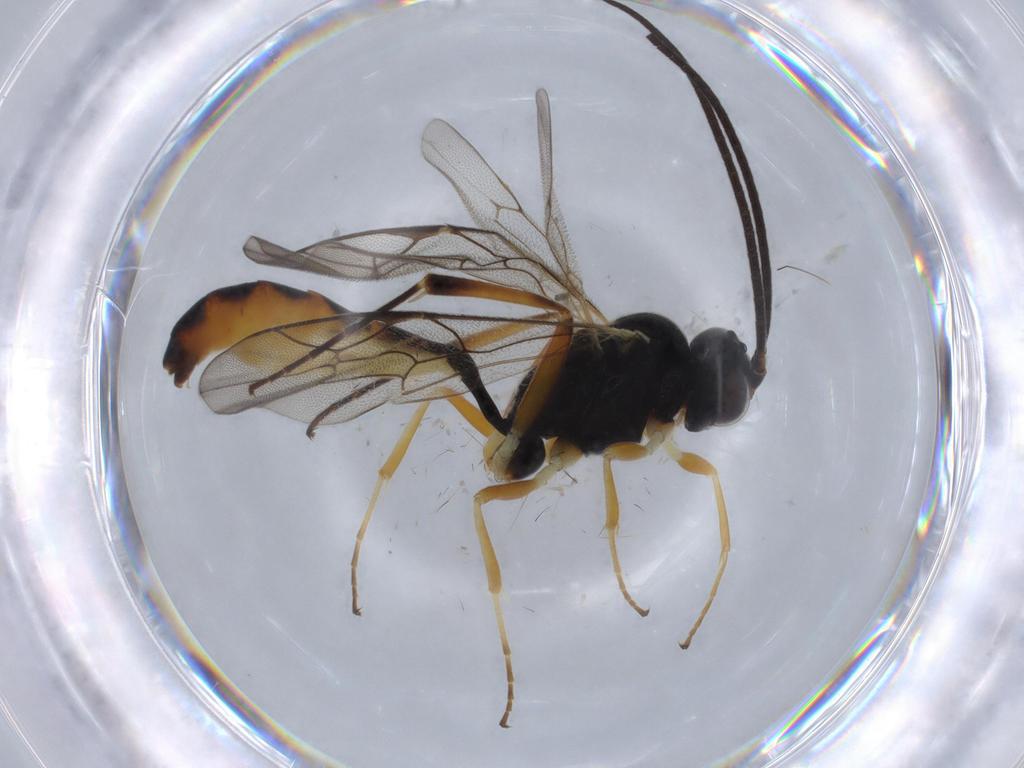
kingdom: Animalia
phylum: Arthropoda
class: Insecta
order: Hymenoptera
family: Ichneumonidae
